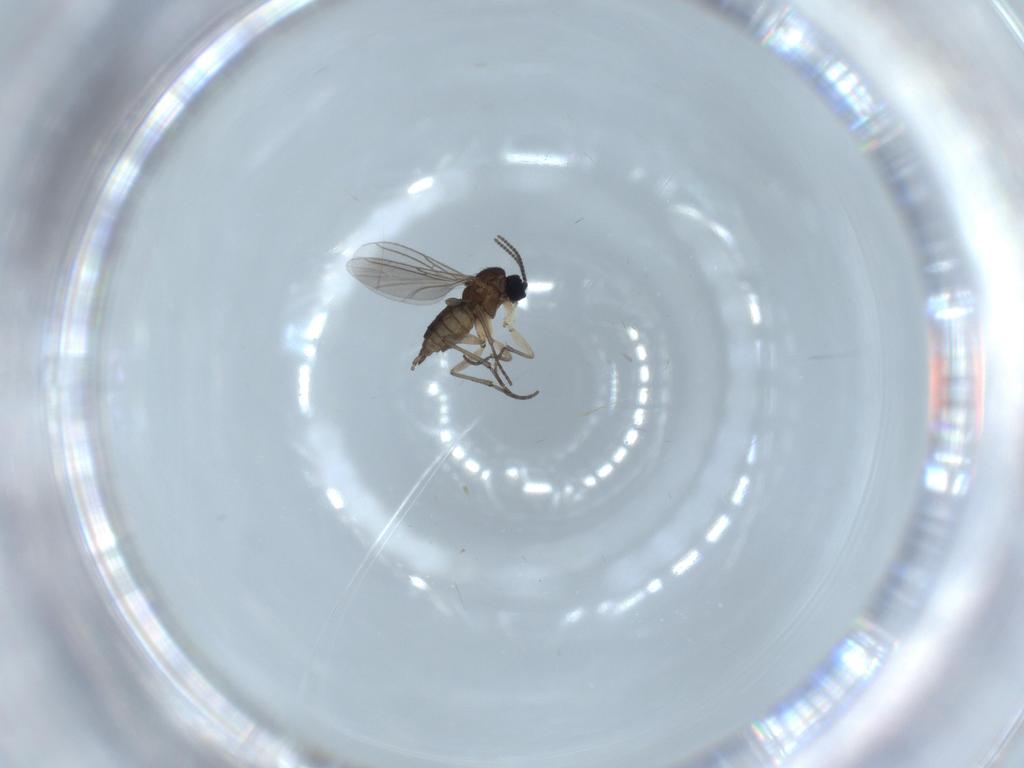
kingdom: Animalia
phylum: Arthropoda
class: Insecta
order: Diptera
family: Sciaridae
